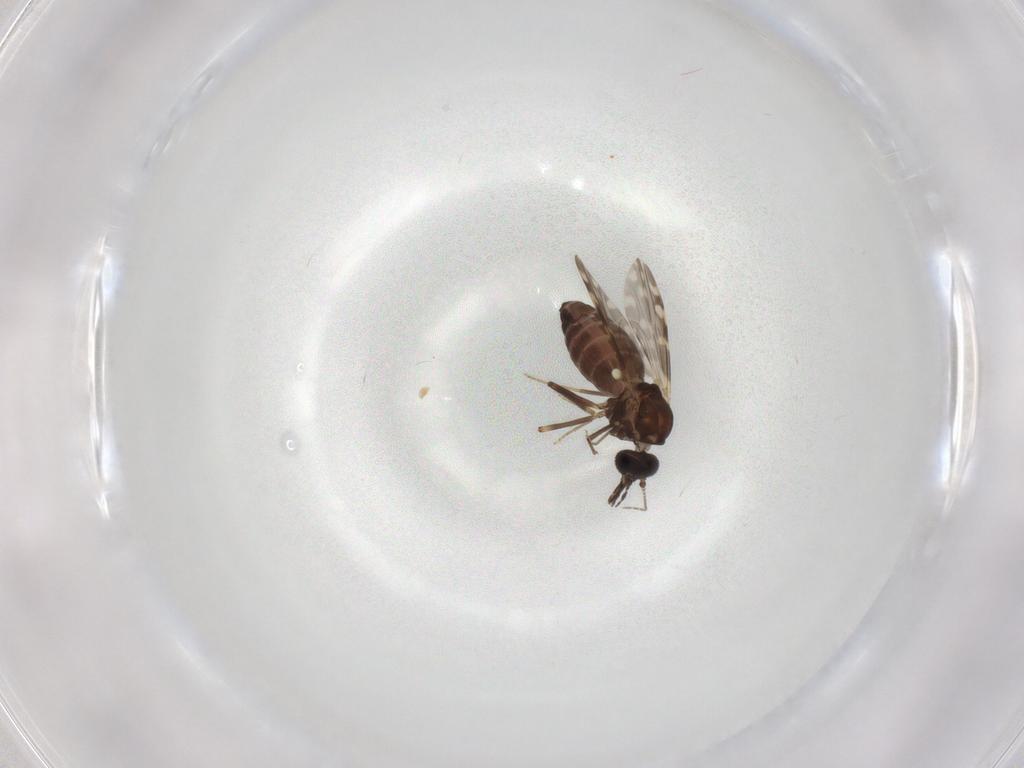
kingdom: Animalia
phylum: Arthropoda
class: Insecta
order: Diptera
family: Ceratopogonidae
